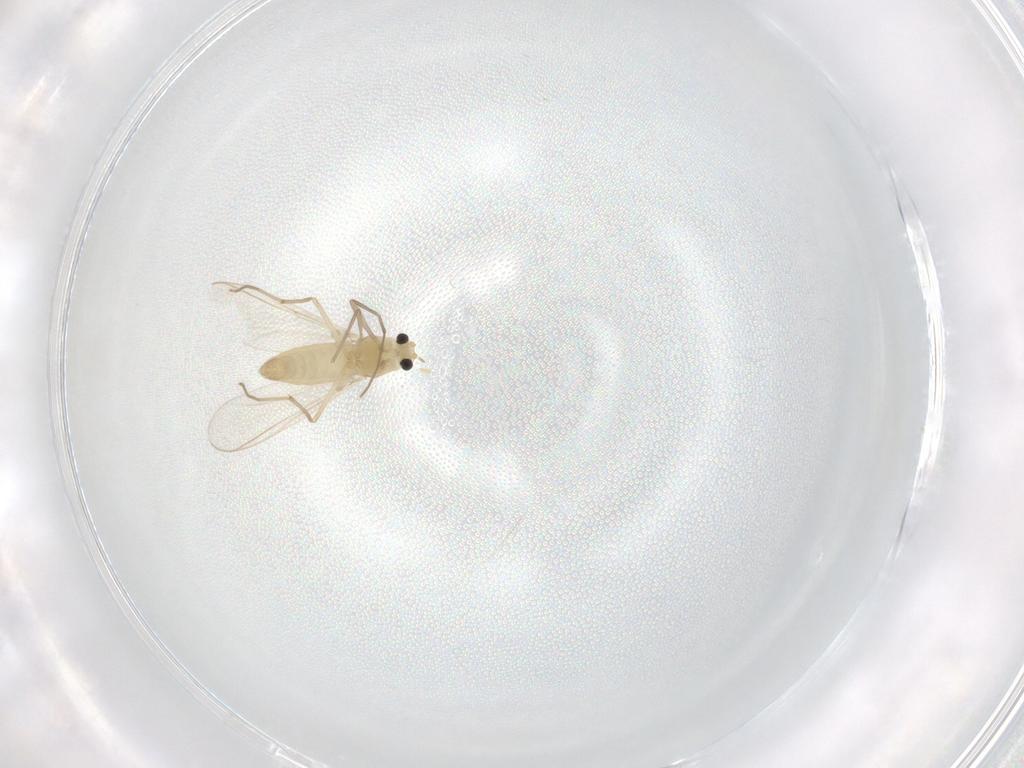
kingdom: Animalia
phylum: Arthropoda
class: Insecta
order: Diptera
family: Chironomidae
